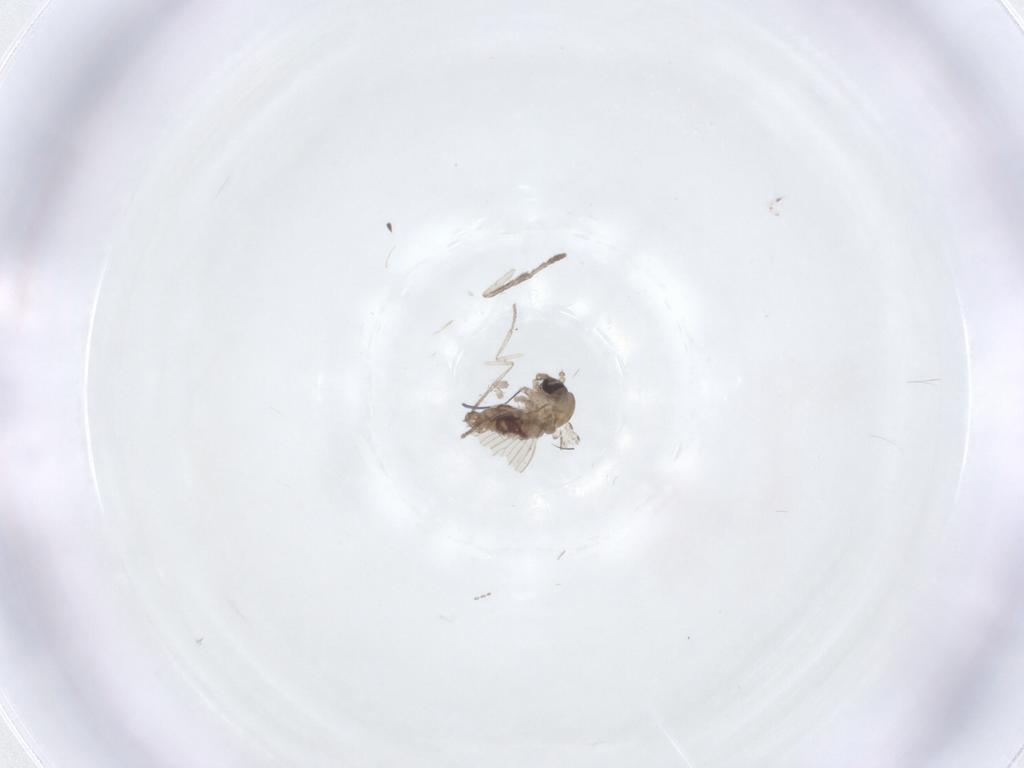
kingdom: Animalia
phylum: Arthropoda
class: Insecta
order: Diptera
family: Psychodidae
